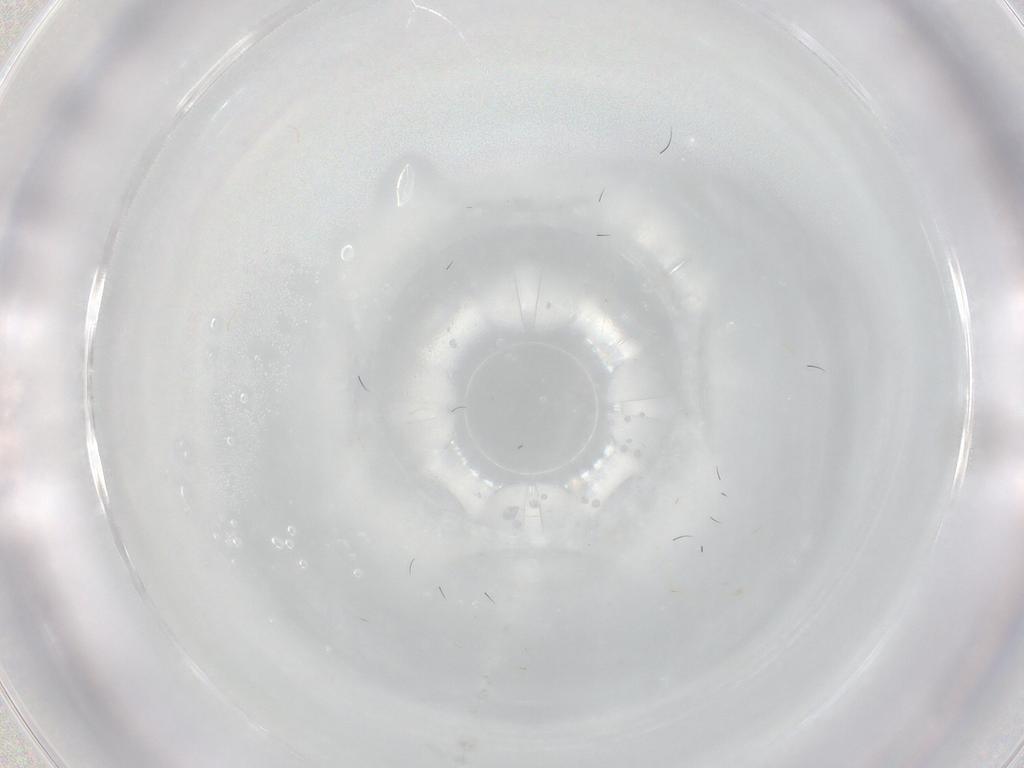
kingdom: Animalia
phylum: Arthropoda
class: Insecta
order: Diptera
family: Cecidomyiidae
